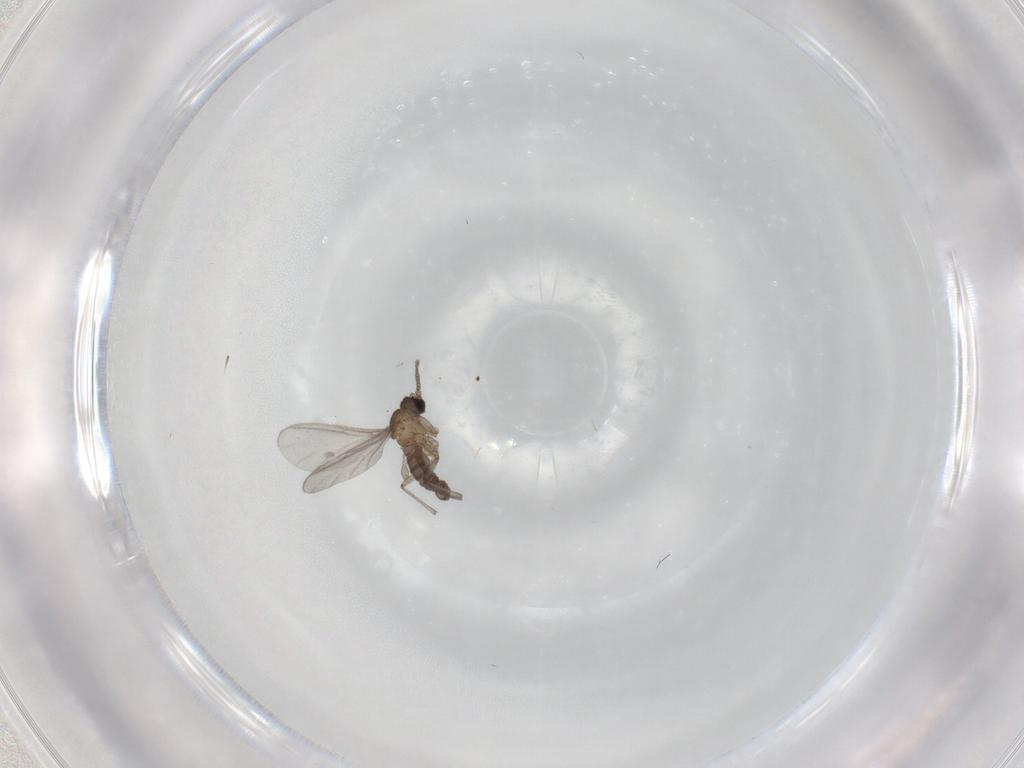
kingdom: Animalia
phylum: Arthropoda
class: Insecta
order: Diptera
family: Sciaridae
